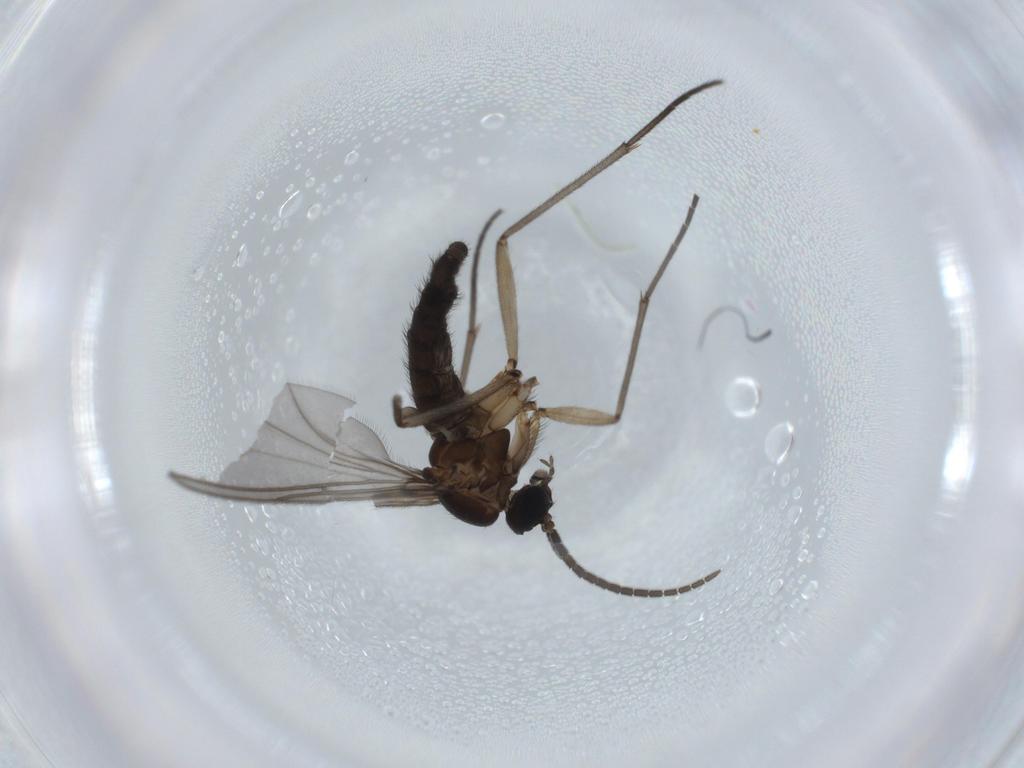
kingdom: Animalia
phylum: Arthropoda
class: Insecta
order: Diptera
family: Sciaridae
